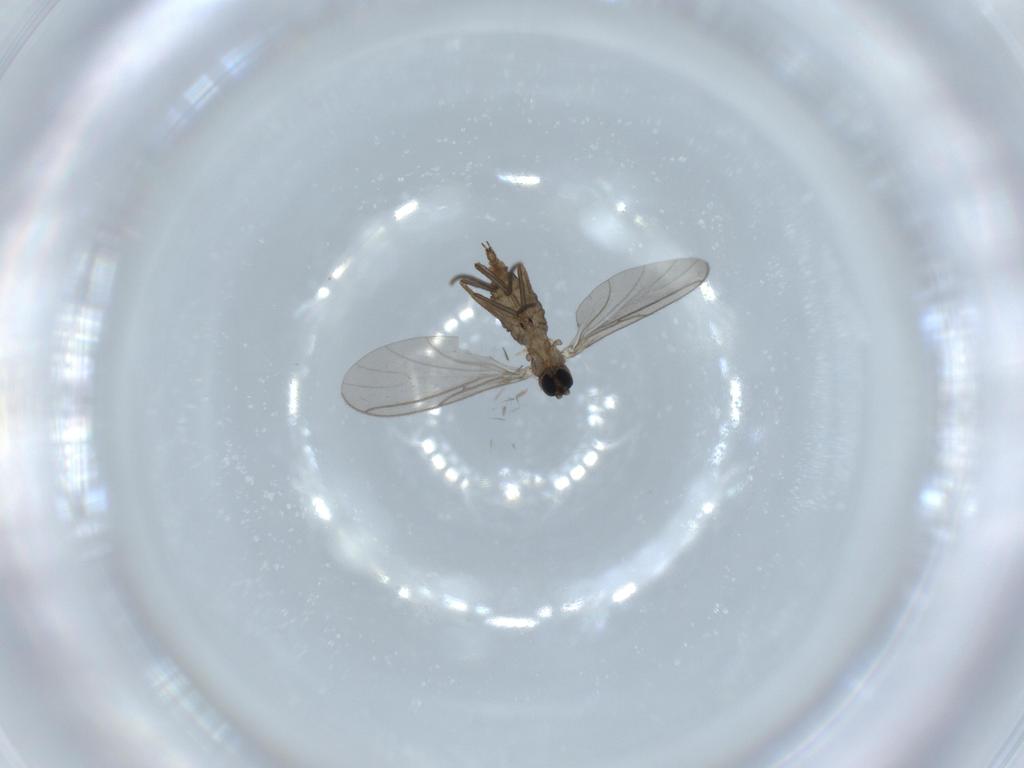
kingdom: Animalia
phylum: Arthropoda
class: Insecta
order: Diptera
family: Sciaridae
